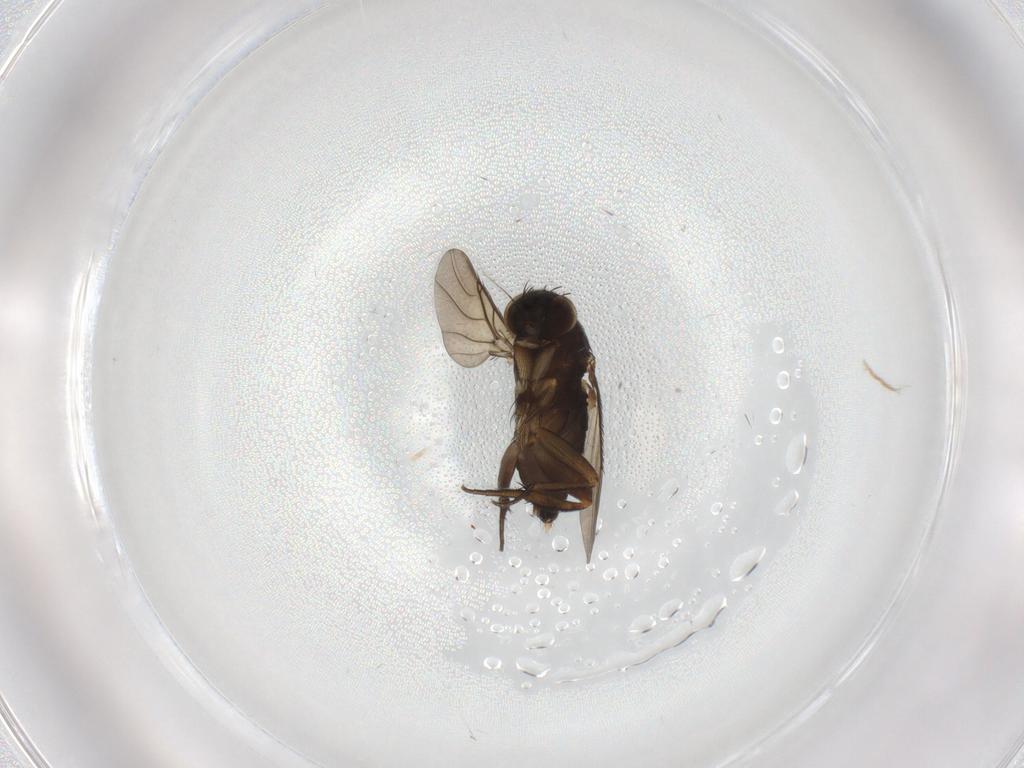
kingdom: Animalia
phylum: Arthropoda
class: Insecta
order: Diptera
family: Phoridae
